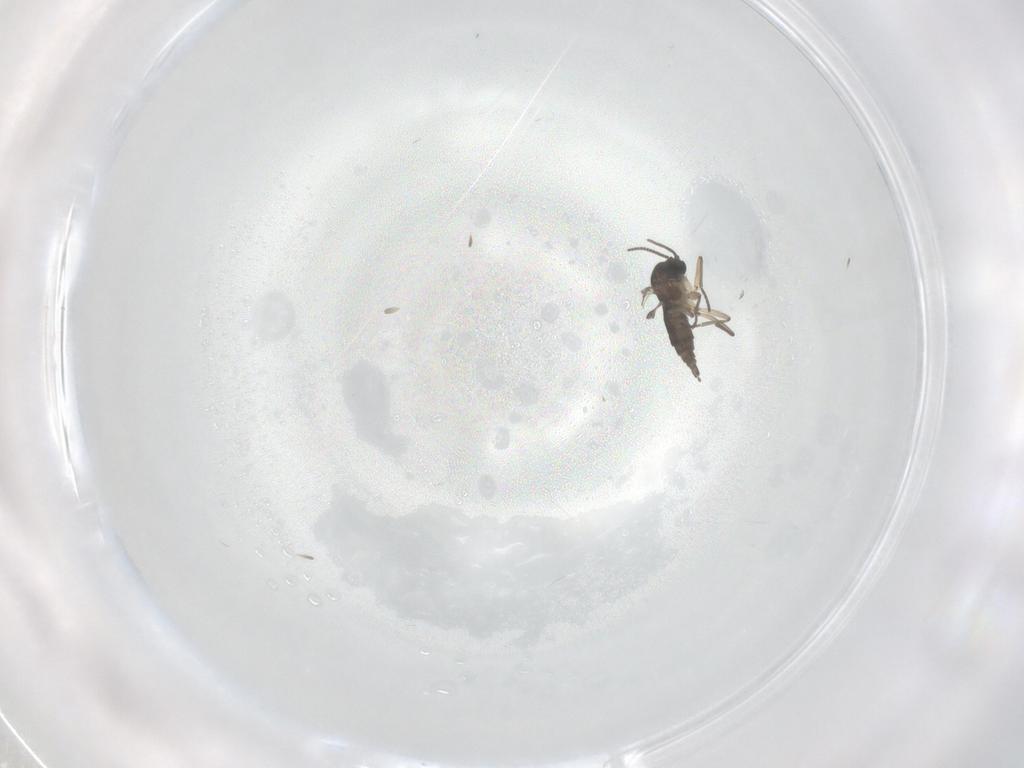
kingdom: Animalia
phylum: Arthropoda
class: Insecta
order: Diptera
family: Sciaridae
